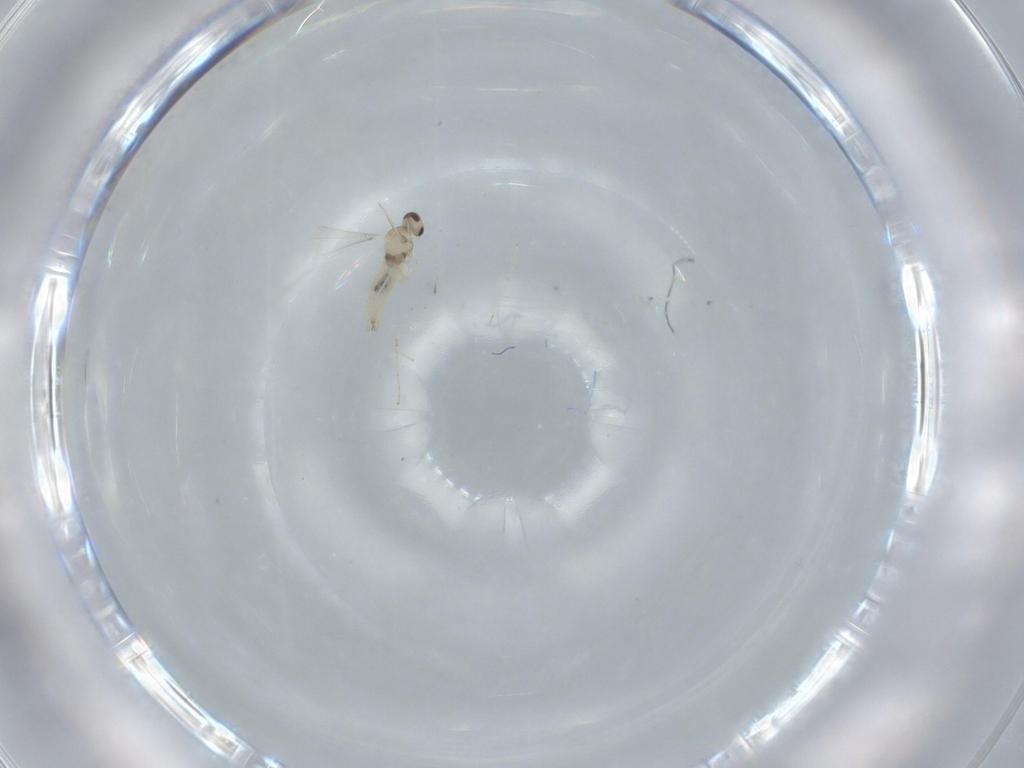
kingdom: Animalia
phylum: Arthropoda
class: Insecta
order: Diptera
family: Cecidomyiidae
